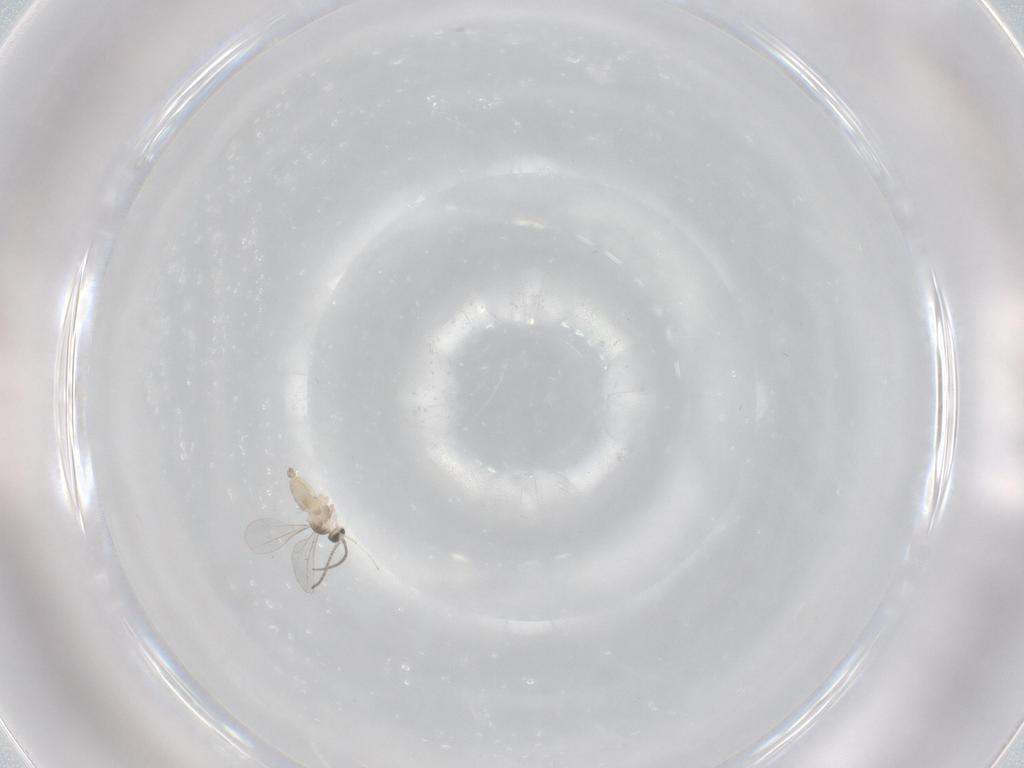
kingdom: Animalia
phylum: Arthropoda
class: Insecta
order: Diptera
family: Cecidomyiidae
